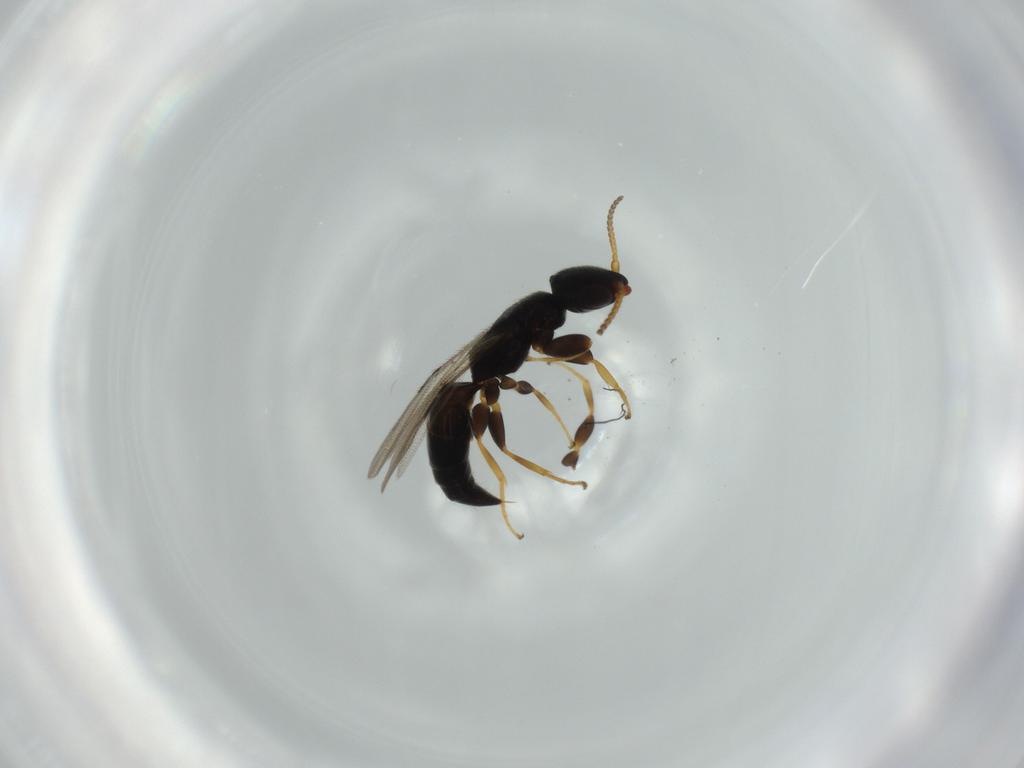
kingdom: Animalia
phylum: Arthropoda
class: Insecta
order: Hymenoptera
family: Bethylidae
